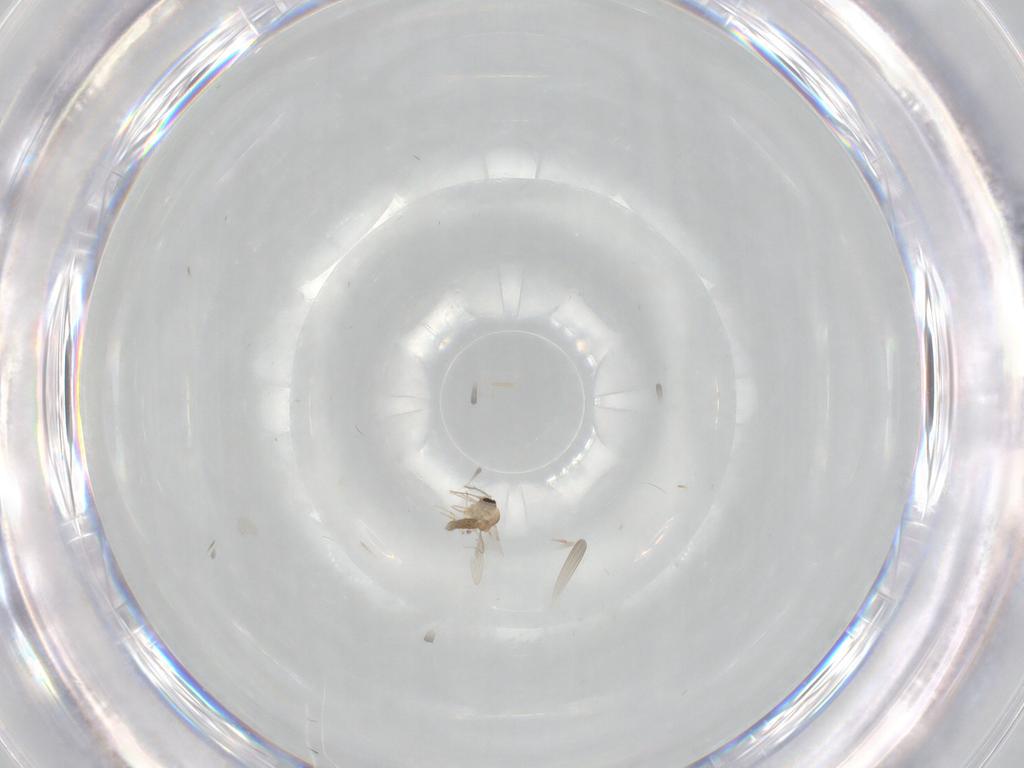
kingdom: Animalia
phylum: Arthropoda
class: Insecta
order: Diptera
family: Ceratopogonidae
